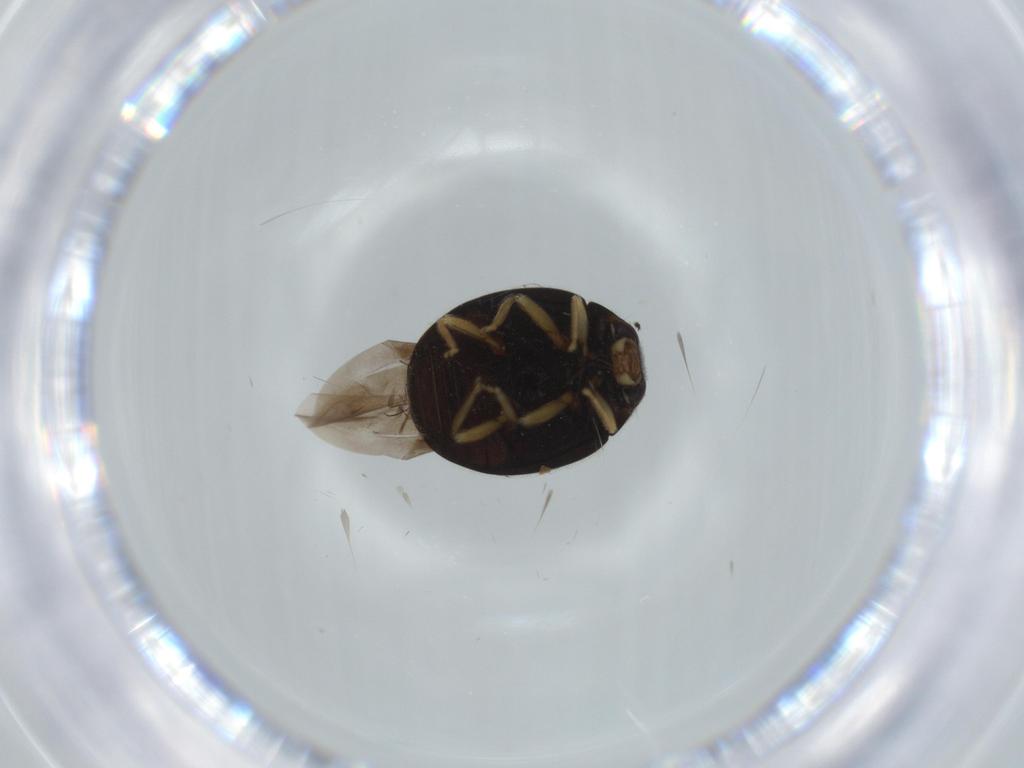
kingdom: Animalia
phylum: Arthropoda
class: Insecta
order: Coleoptera
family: Coccinellidae
